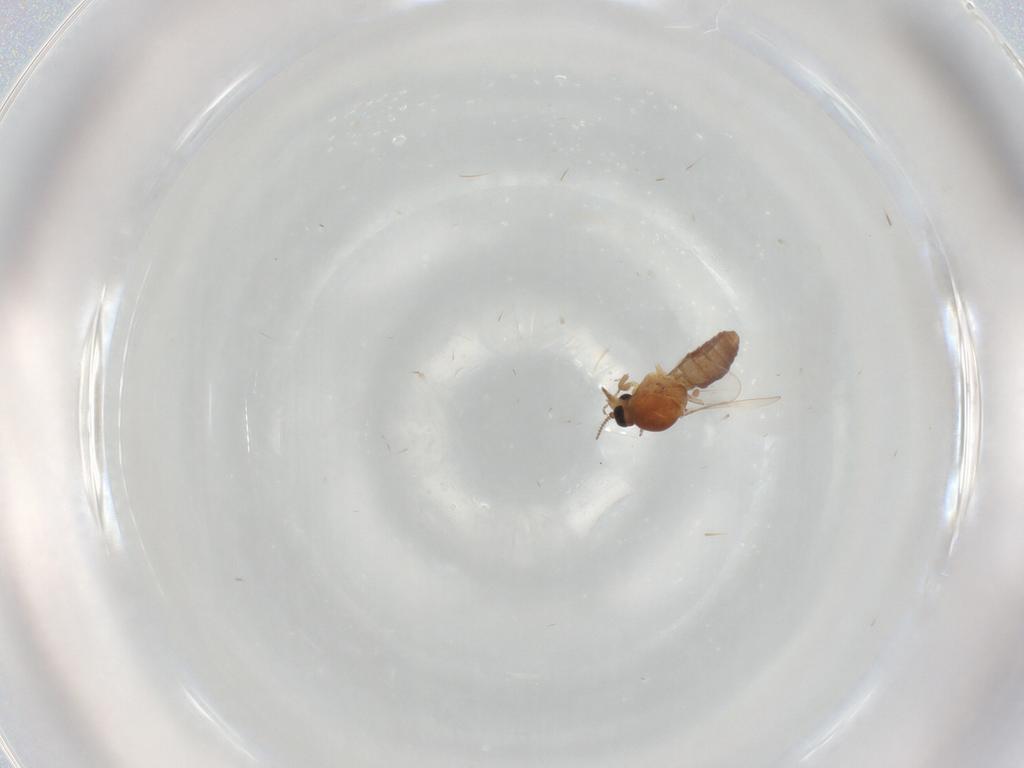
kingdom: Animalia
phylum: Arthropoda
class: Insecta
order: Diptera
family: Ceratopogonidae
